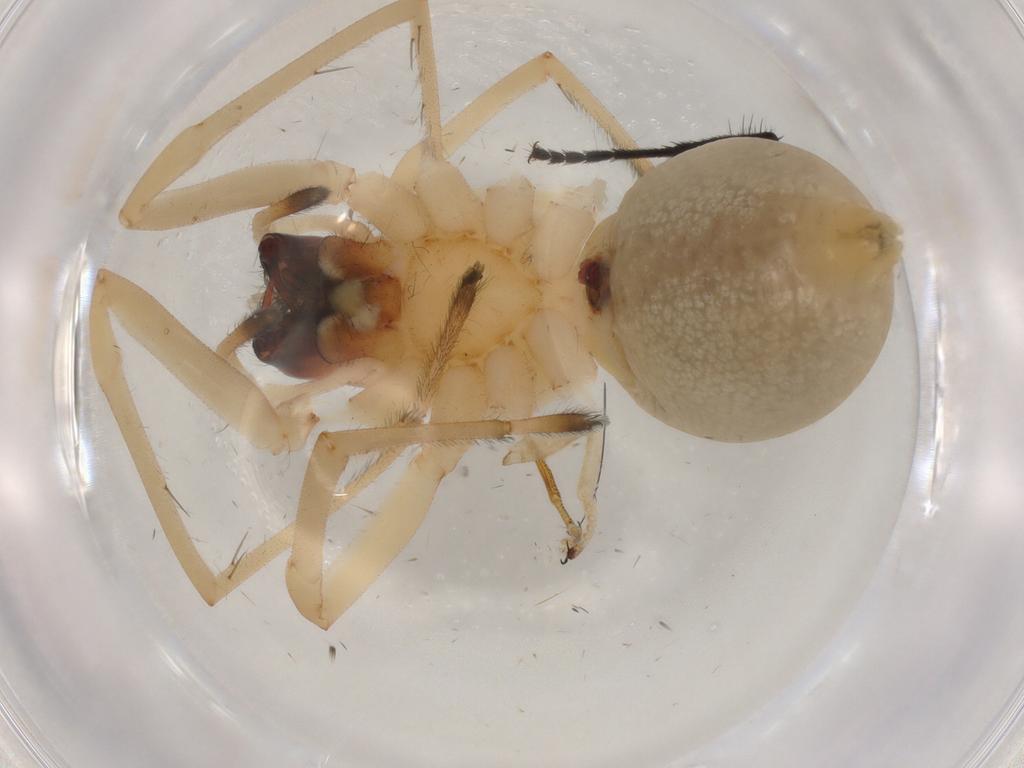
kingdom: Animalia
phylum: Arthropoda
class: Arachnida
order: Araneae
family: Cheiracanthiidae
